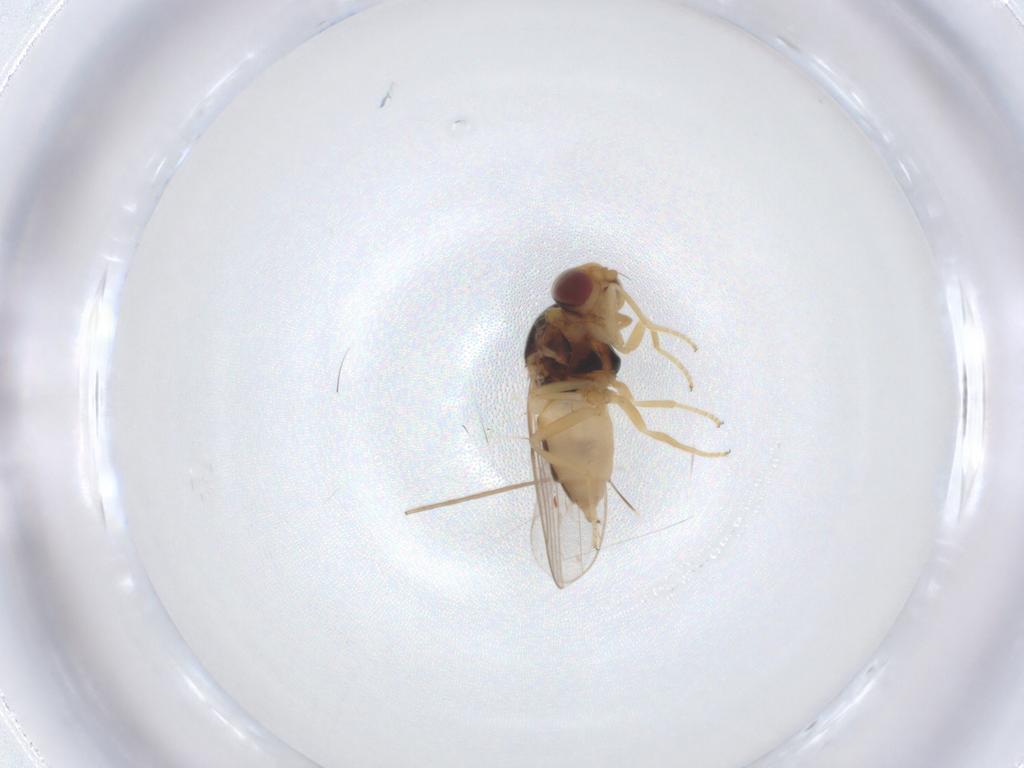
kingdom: Animalia
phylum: Arthropoda
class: Insecta
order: Diptera
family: Chloropidae
